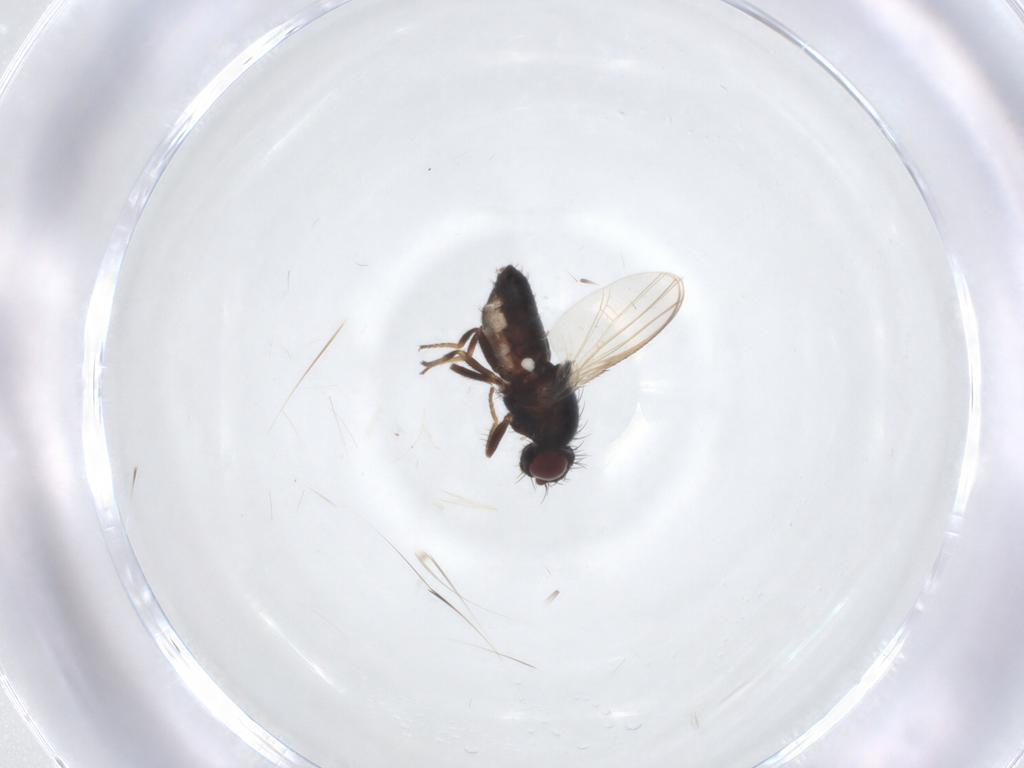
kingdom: Animalia
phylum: Arthropoda
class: Insecta
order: Diptera
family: Carnidae
